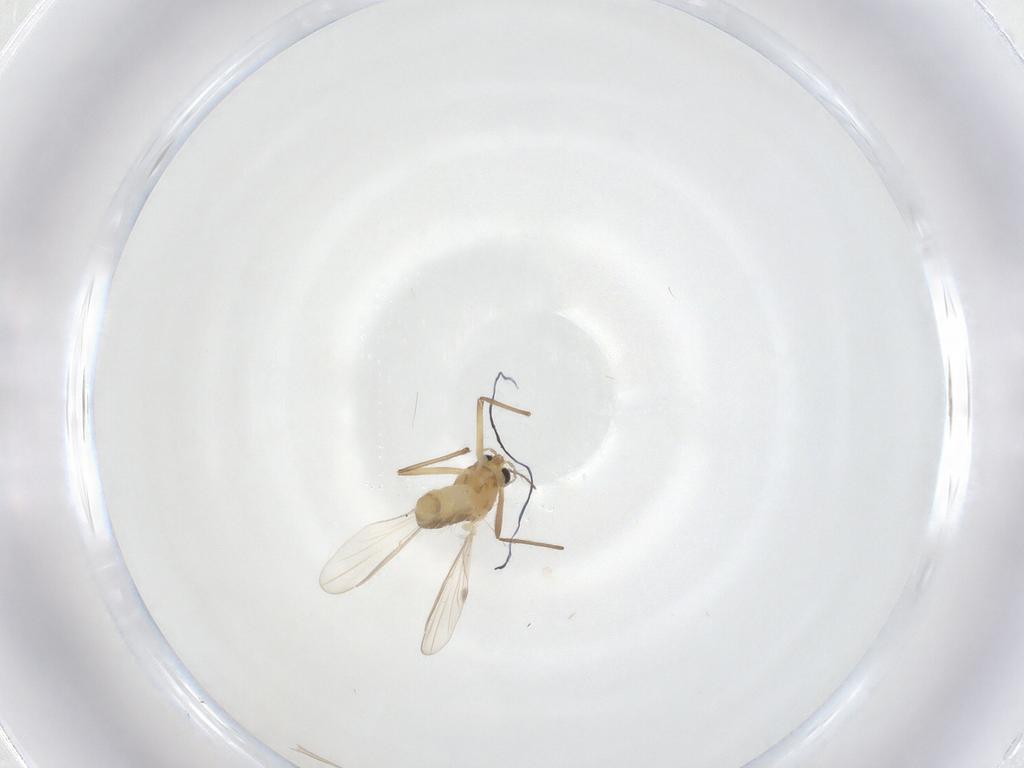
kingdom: Animalia
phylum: Arthropoda
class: Insecta
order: Diptera
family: Chironomidae
